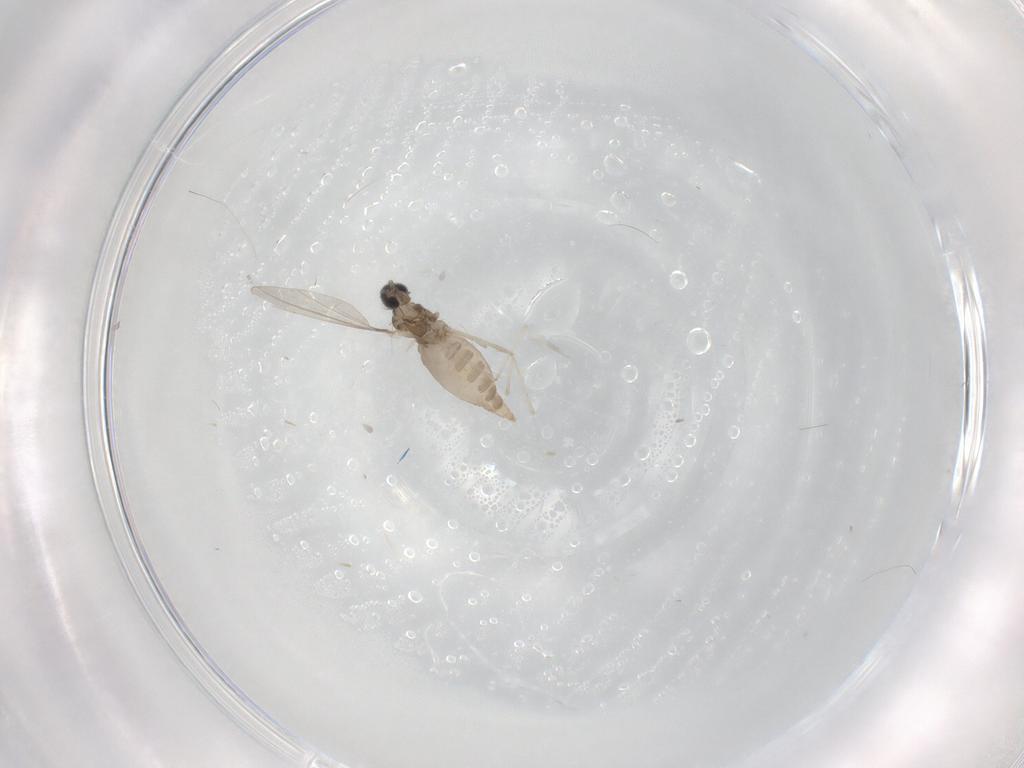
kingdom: Animalia
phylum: Arthropoda
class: Insecta
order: Diptera
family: Cecidomyiidae
